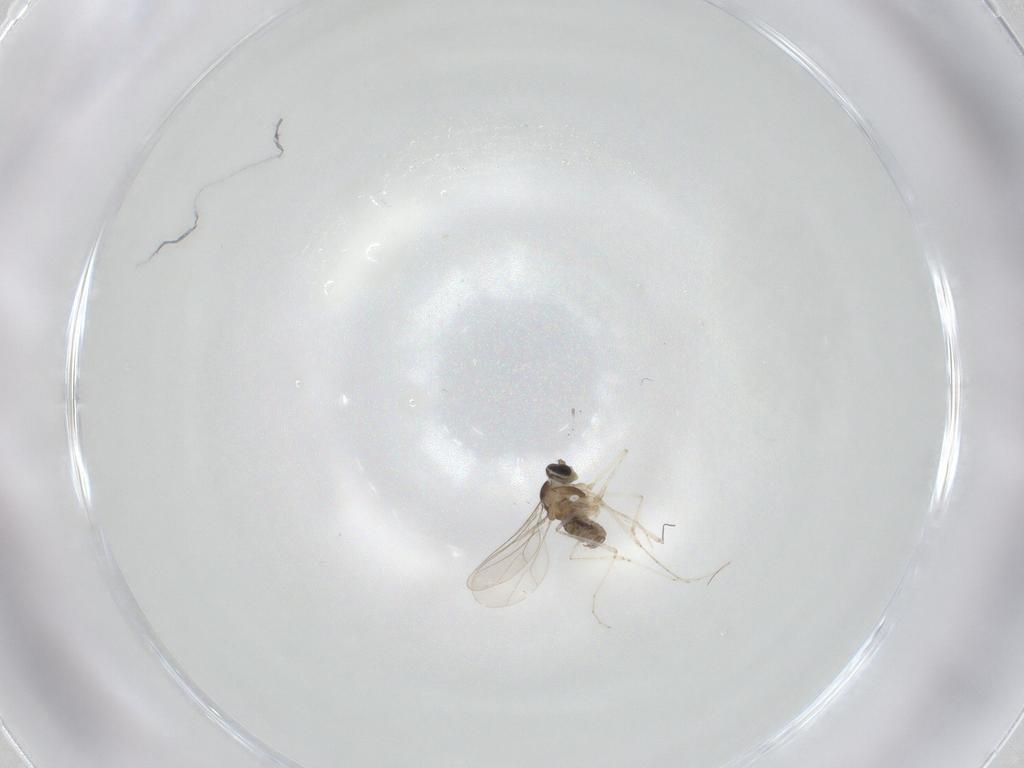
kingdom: Animalia
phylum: Arthropoda
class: Insecta
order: Diptera
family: Cecidomyiidae
